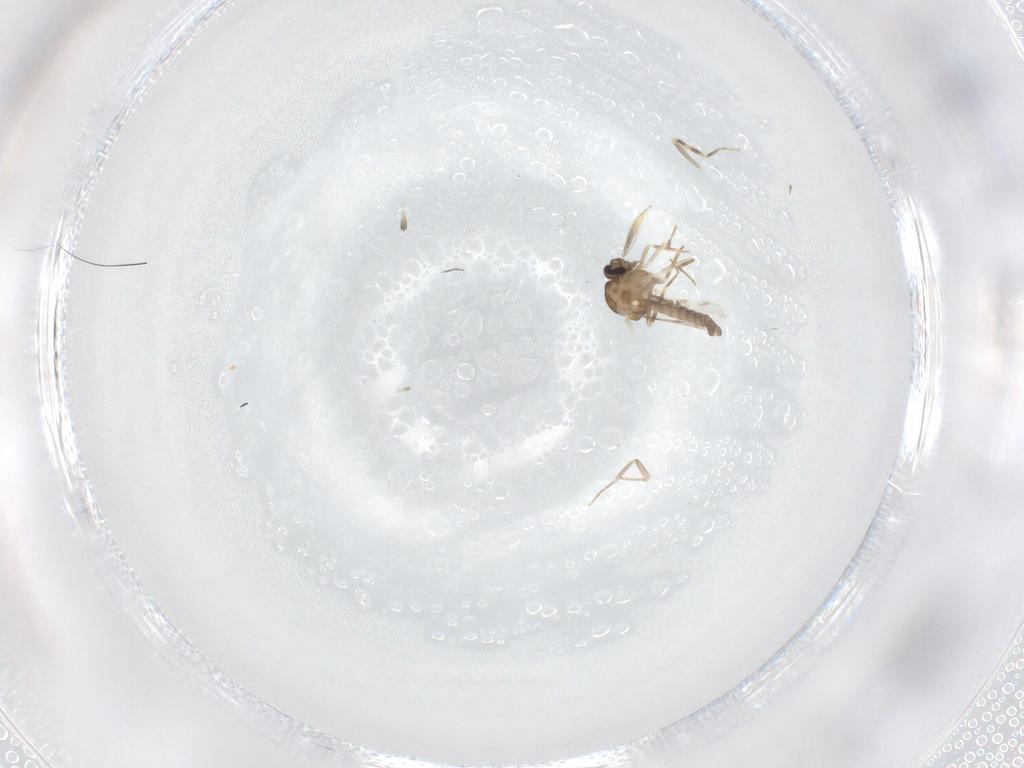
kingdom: Animalia
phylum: Arthropoda
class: Insecta
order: Diptera
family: Ceratopogonidae
